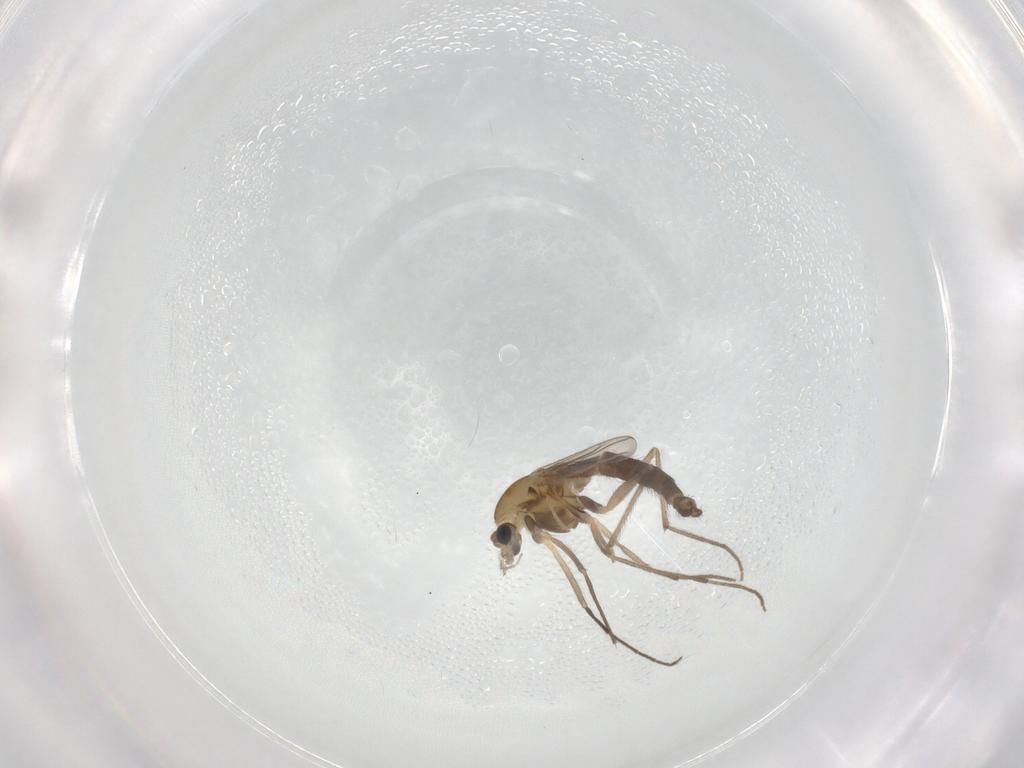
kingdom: Animalia
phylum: Arthropoda
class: Insecta
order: Diptera
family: Chironomidae
